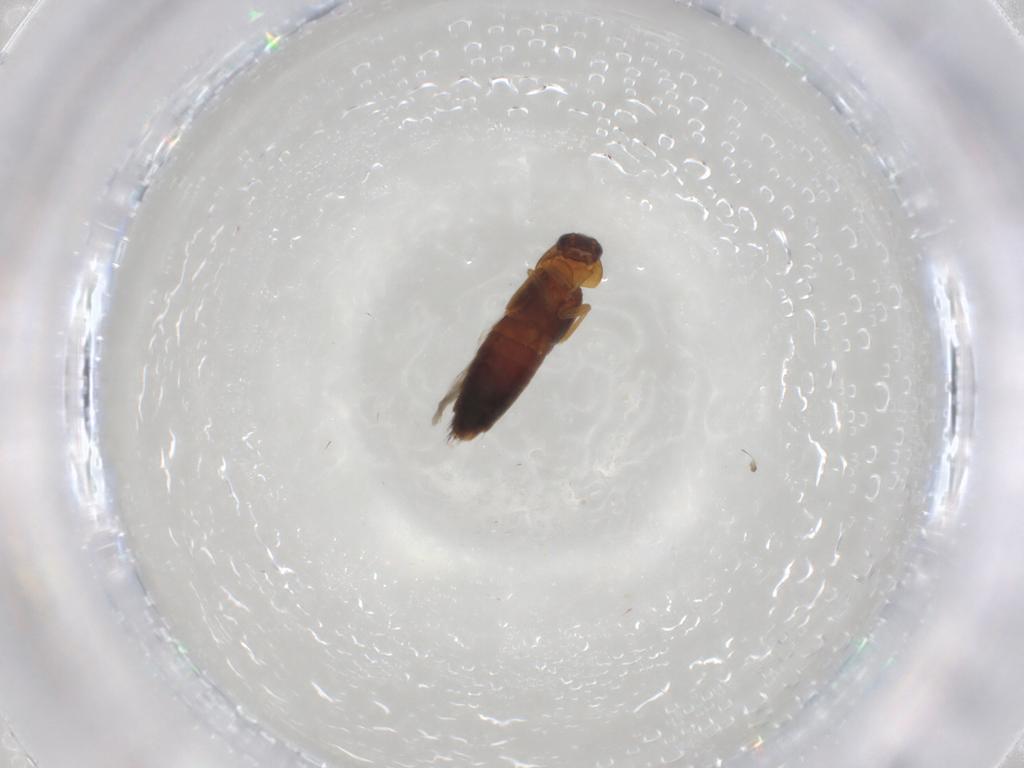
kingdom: Animalia
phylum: Arthropoda
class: Insecta
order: Coleoptera
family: Staphylinidae
